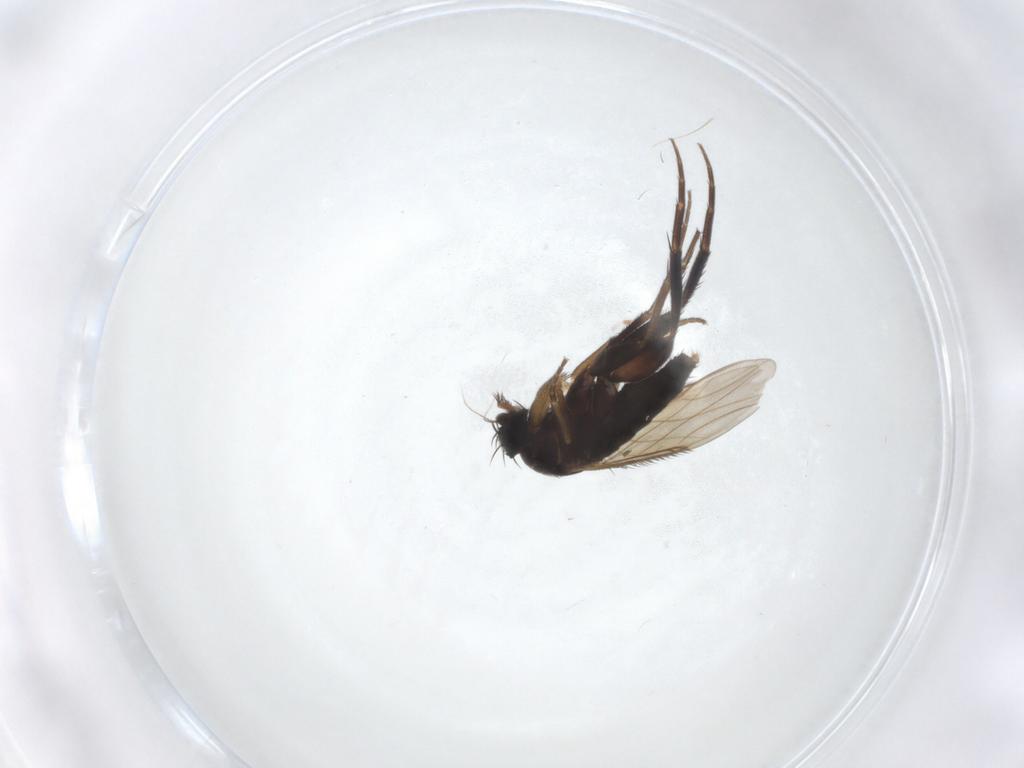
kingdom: Animalia
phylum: Arthropoda
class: Insecta
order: Diptera
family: Phoridae
